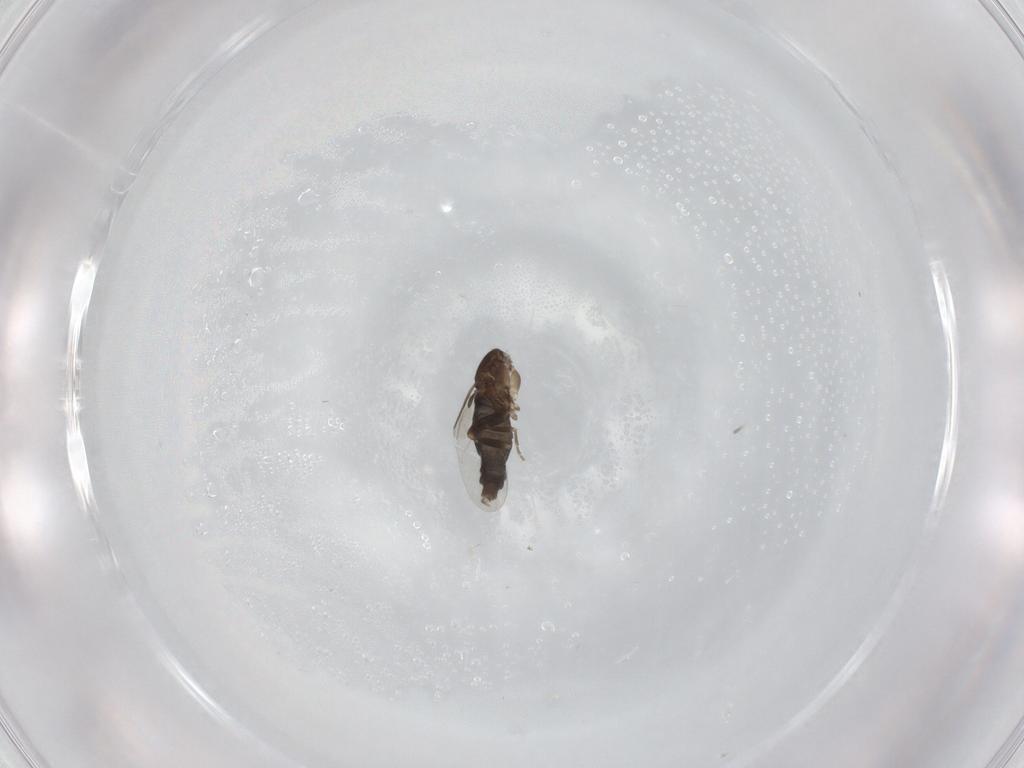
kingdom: Animalia
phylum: Arthropoda
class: Insecta
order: Diptera
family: Phoridae
